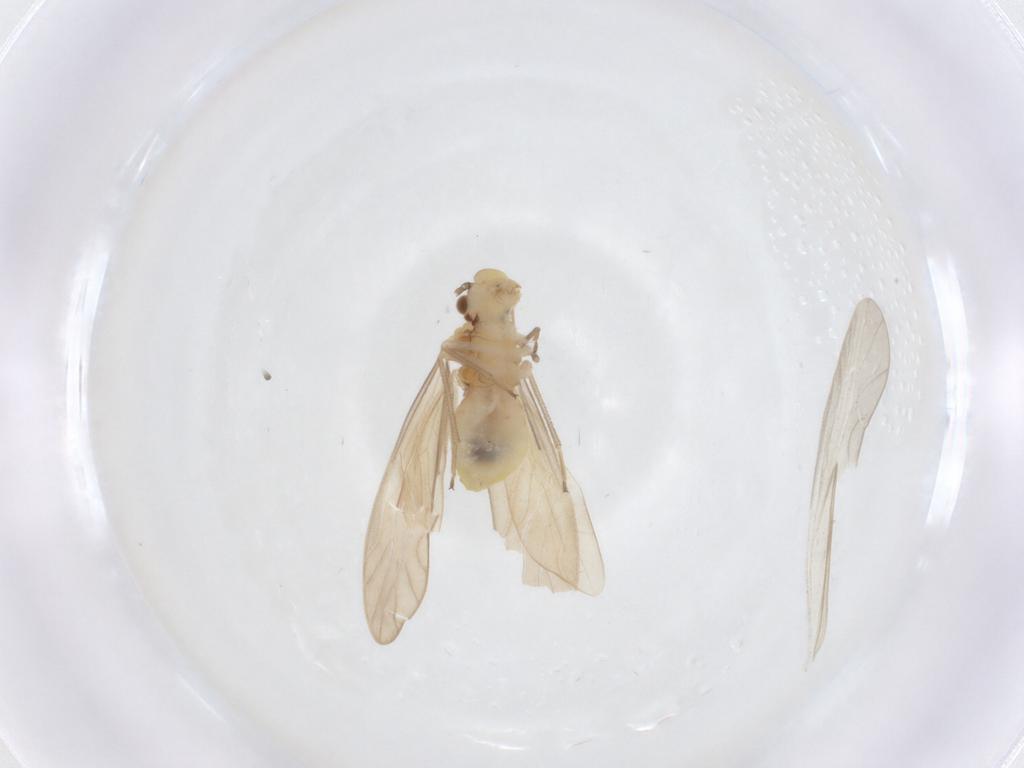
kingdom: Animalia
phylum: Arthropoda
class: Insecta
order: Psocodea
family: Caeciliusidae
